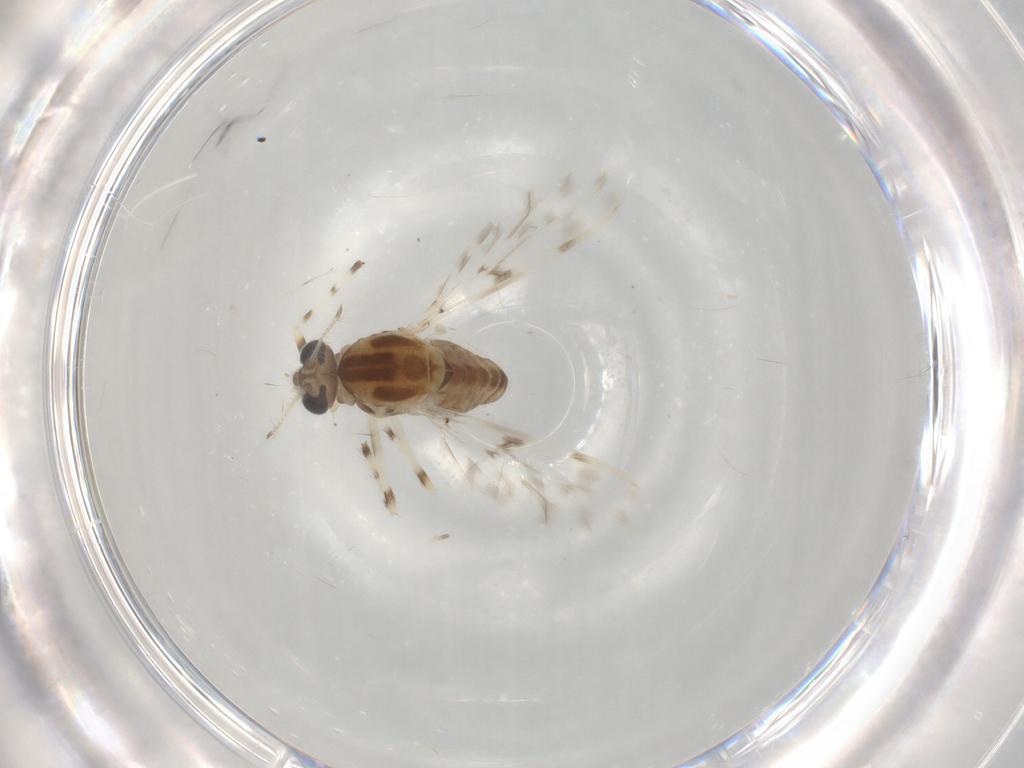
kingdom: Animalia
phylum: Arthropoda
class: Insecta
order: Diptera
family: Chironomidae
